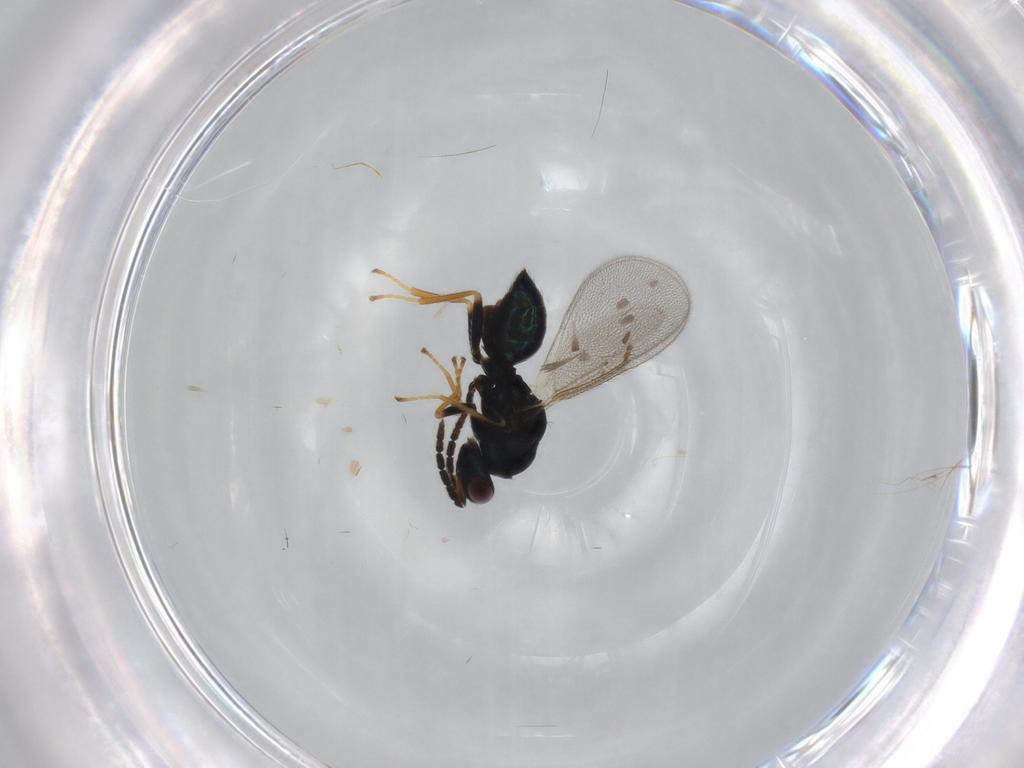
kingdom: Animalia
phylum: Arthropoda
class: Insecta
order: Hymenoptera
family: Eulophidae
